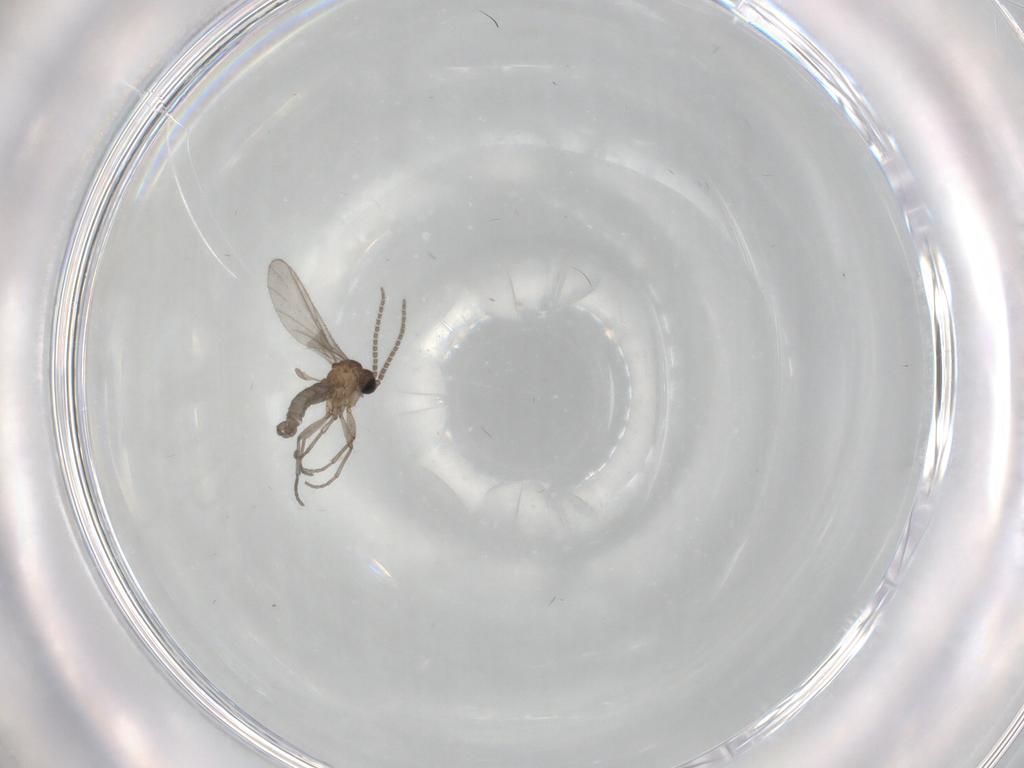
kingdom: Animalia
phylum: Arthropoda
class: Insecta
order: Diptera
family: Sciaridae
